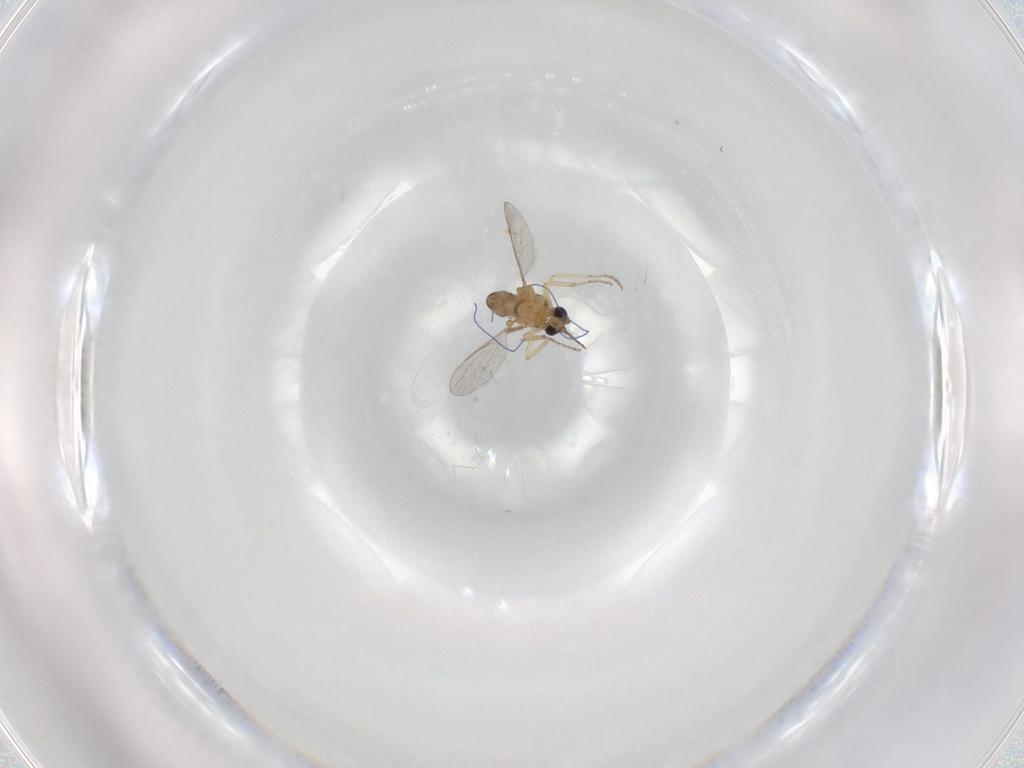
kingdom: Animalia
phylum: Arthropoda
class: Insecta
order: Diptera
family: Ceratopogonidae
